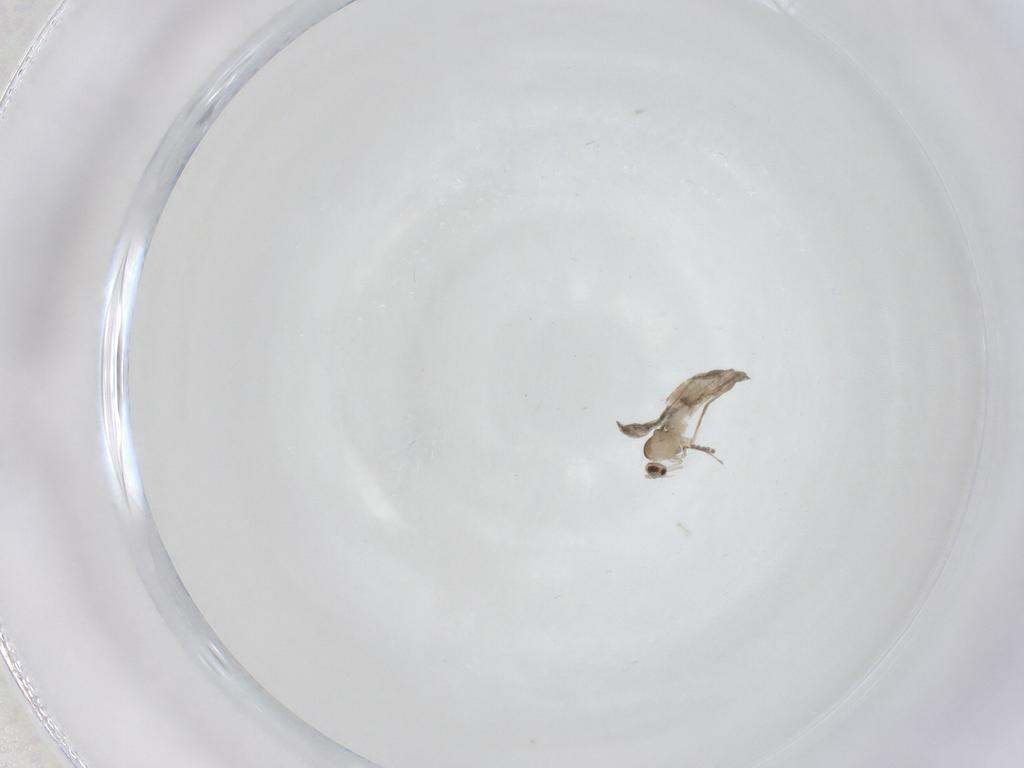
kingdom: Animalia
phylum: Arthropoda
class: Insecta
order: Diptera
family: Cecidomyiidae
